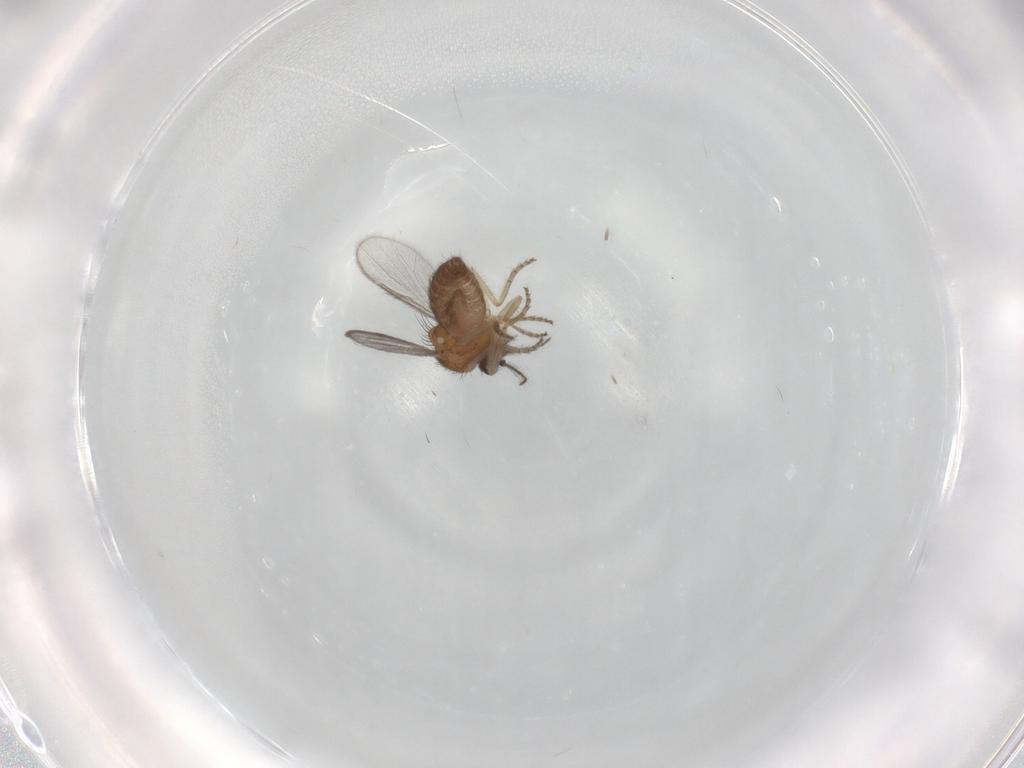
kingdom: Animalia
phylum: Arthropoda
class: Insecta
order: Diptera
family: Ceratopogonidae
